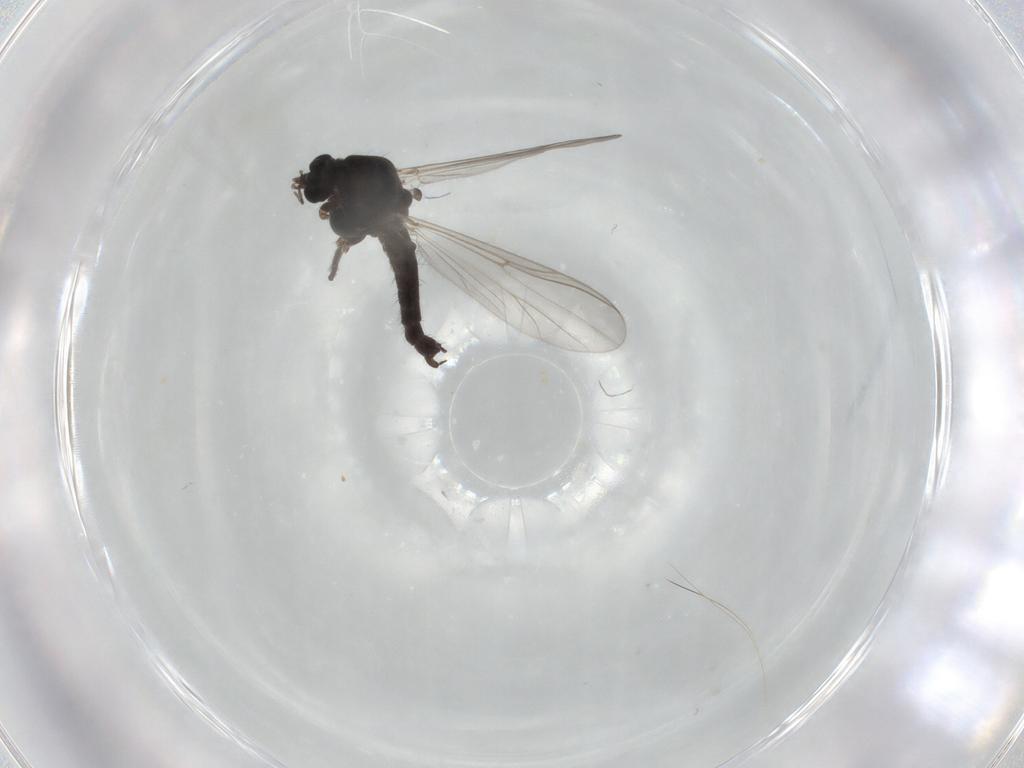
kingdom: Animalia
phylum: Arthropoda
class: Insecta
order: Diptera
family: Chironomidae
